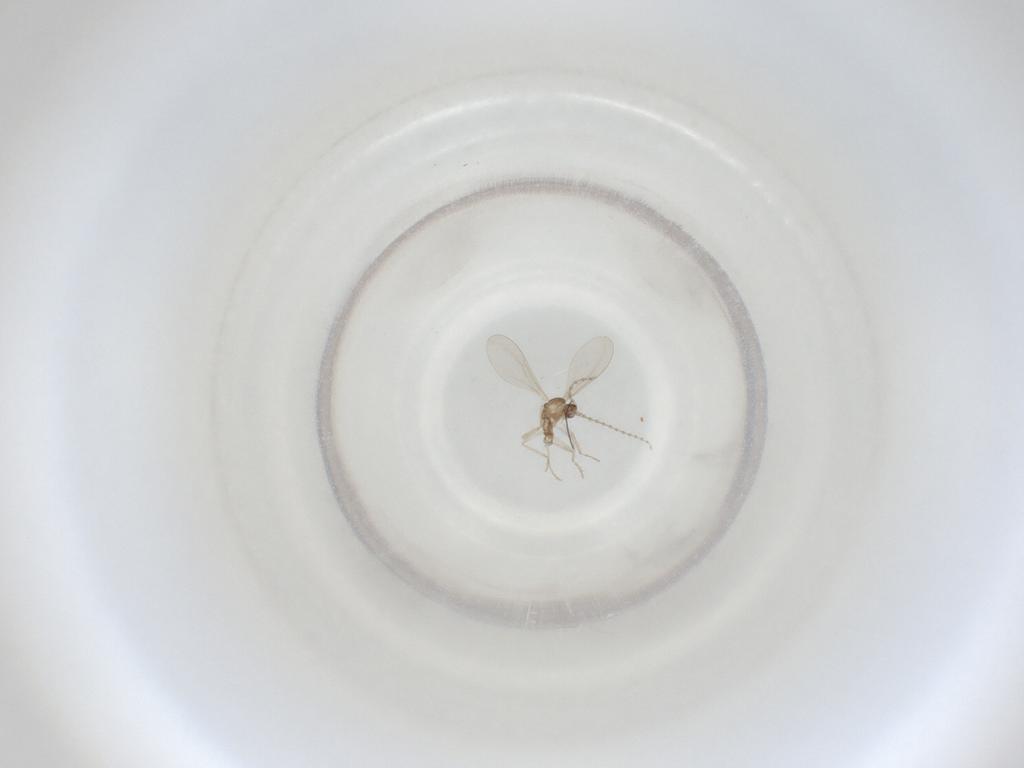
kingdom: Animalia
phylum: Arthropoda
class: Insecta
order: Diptera
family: Cecidomyiidae
